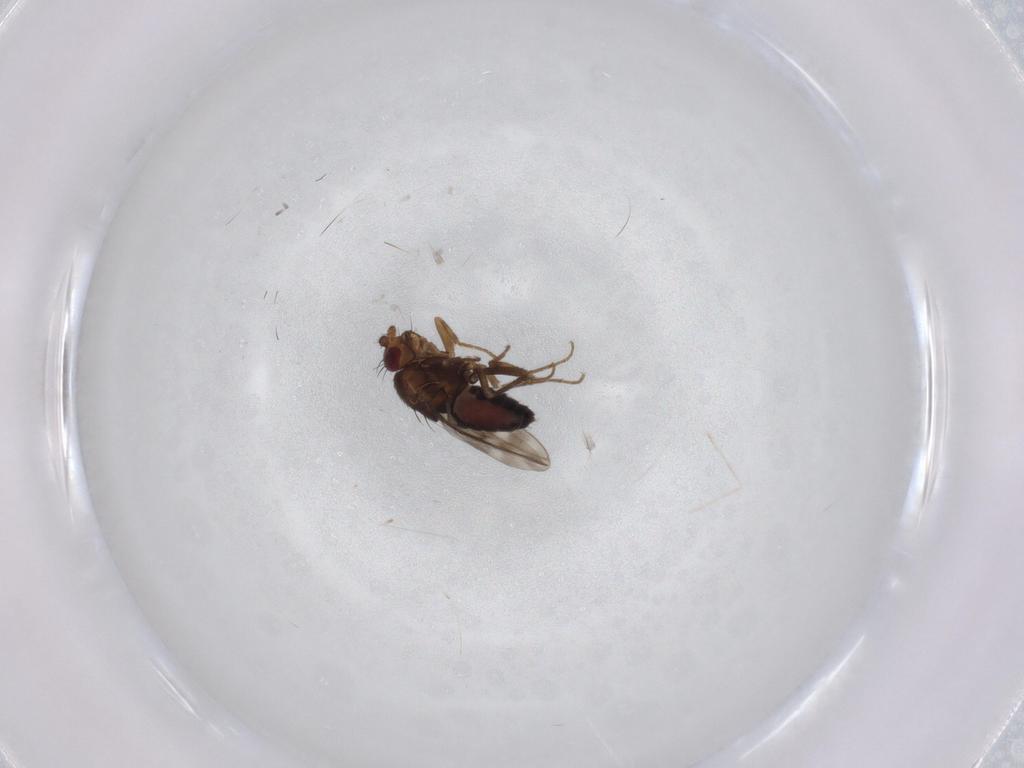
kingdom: Animalia
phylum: Arthropoda
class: Insecta
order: Diptera
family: Sphaeroceridae
